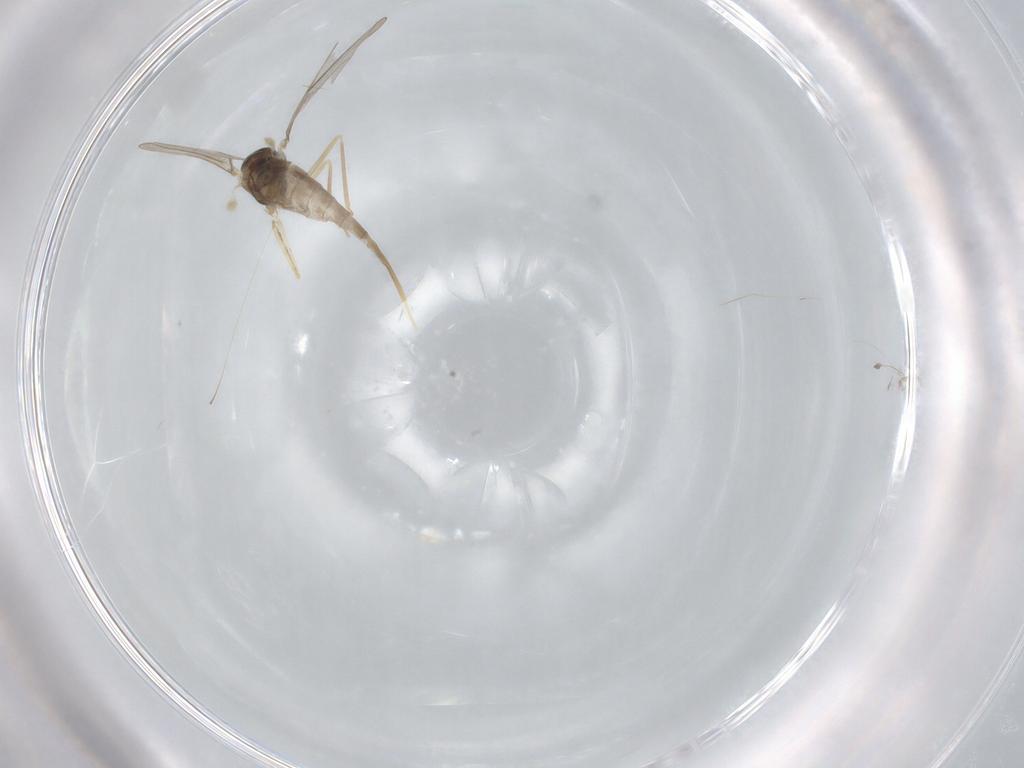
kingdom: Animalia
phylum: Arthropoda
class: Insecta
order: Diptera
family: Cecidomyiidae
